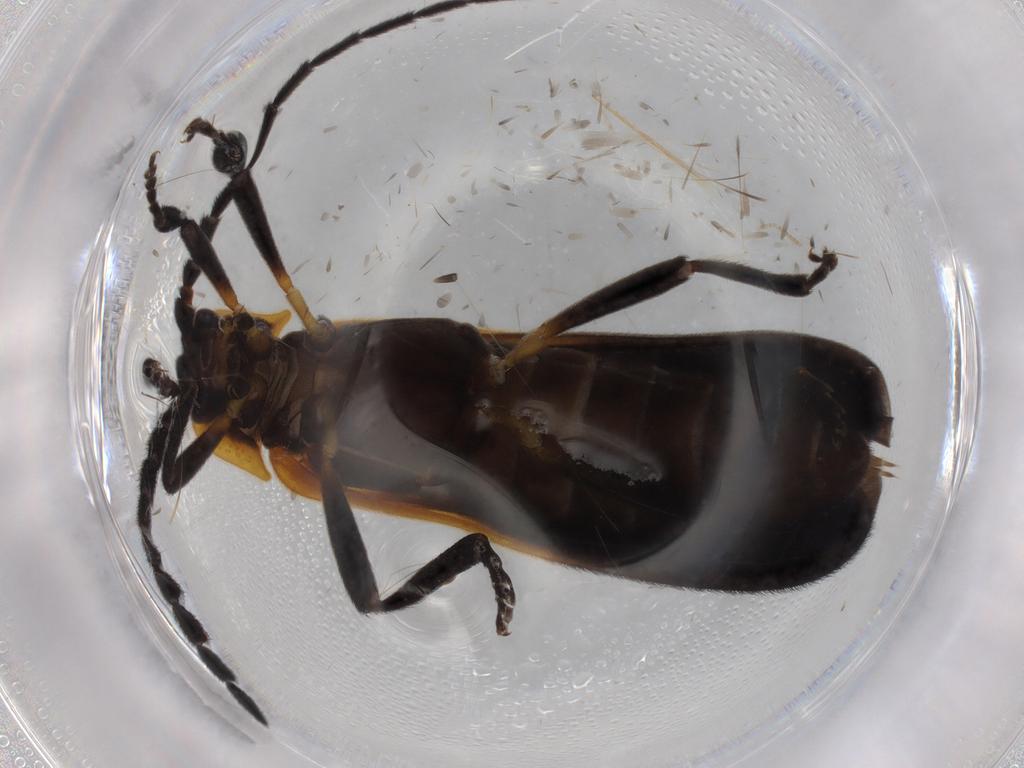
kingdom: Animalia
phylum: Arthropoda
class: Insecta
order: Coleoptera
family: Lycidae
